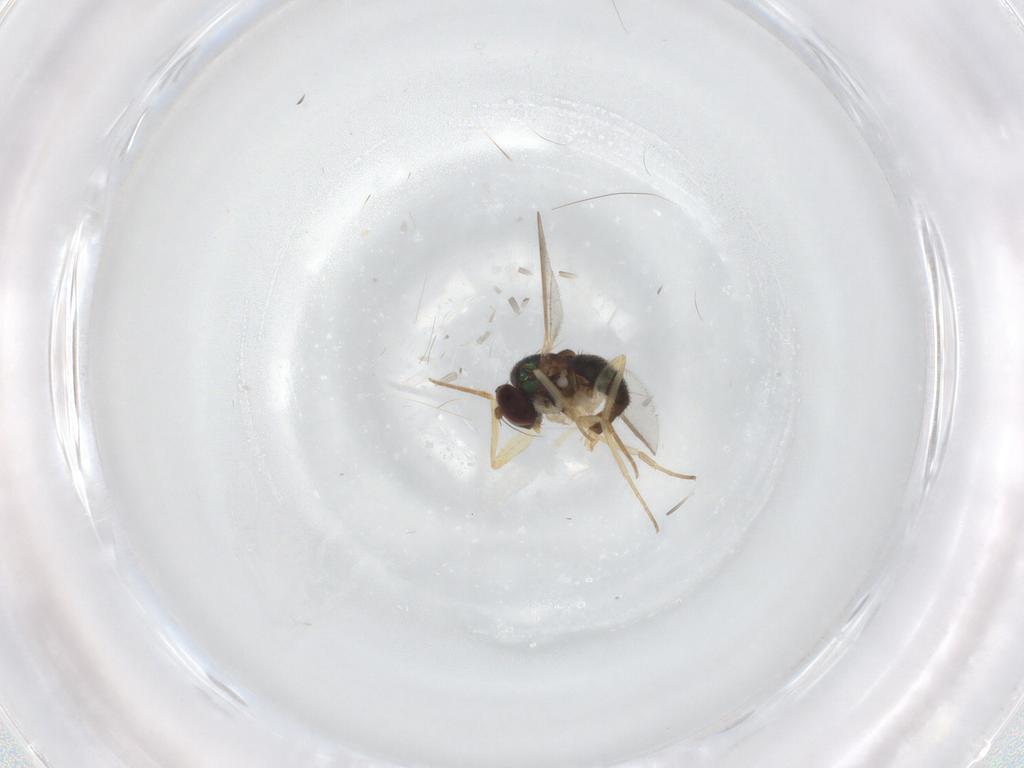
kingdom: Animalia
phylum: Arthropoda
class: Insecta
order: Diptera
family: Dolichopodidae
